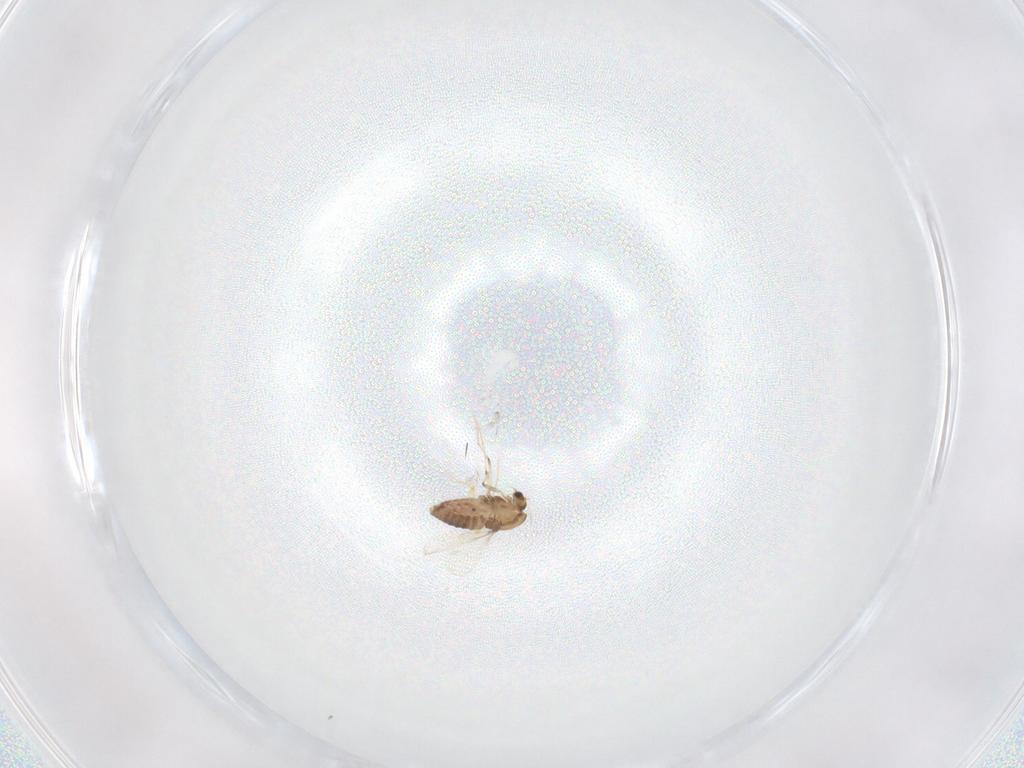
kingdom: Animalia
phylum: Arthropoda
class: Insecta
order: Diptera
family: Chironomidae
